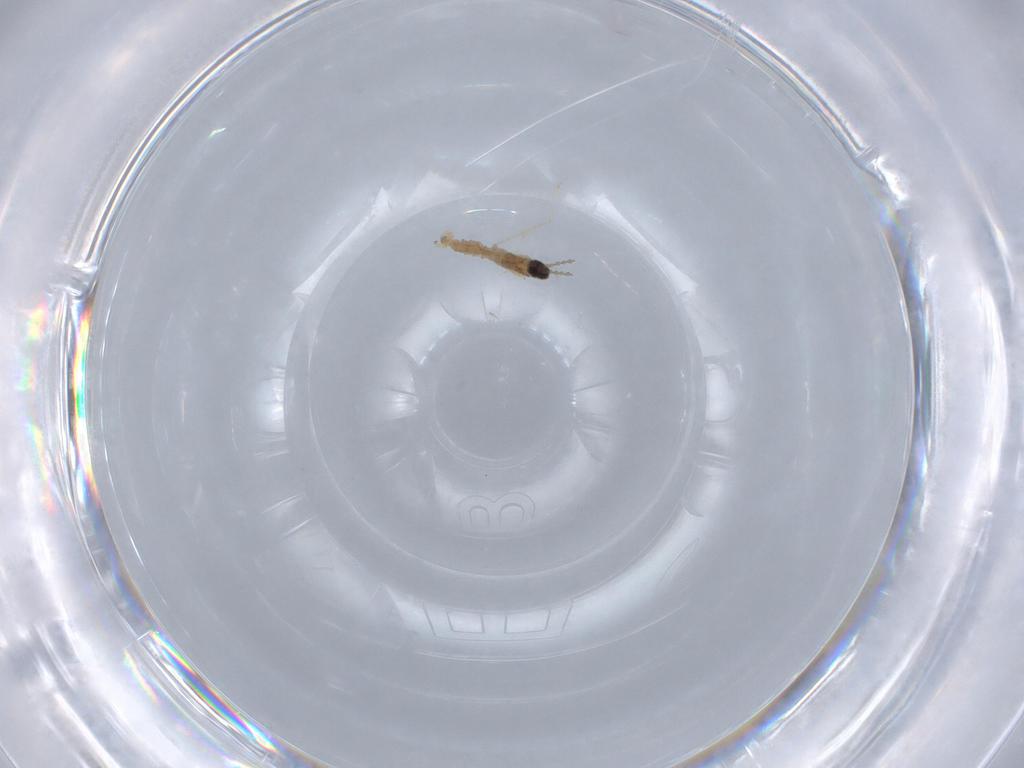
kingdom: Animalia
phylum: Arthropoda
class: Insecta
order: Diptera
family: Cecidomyiidae
